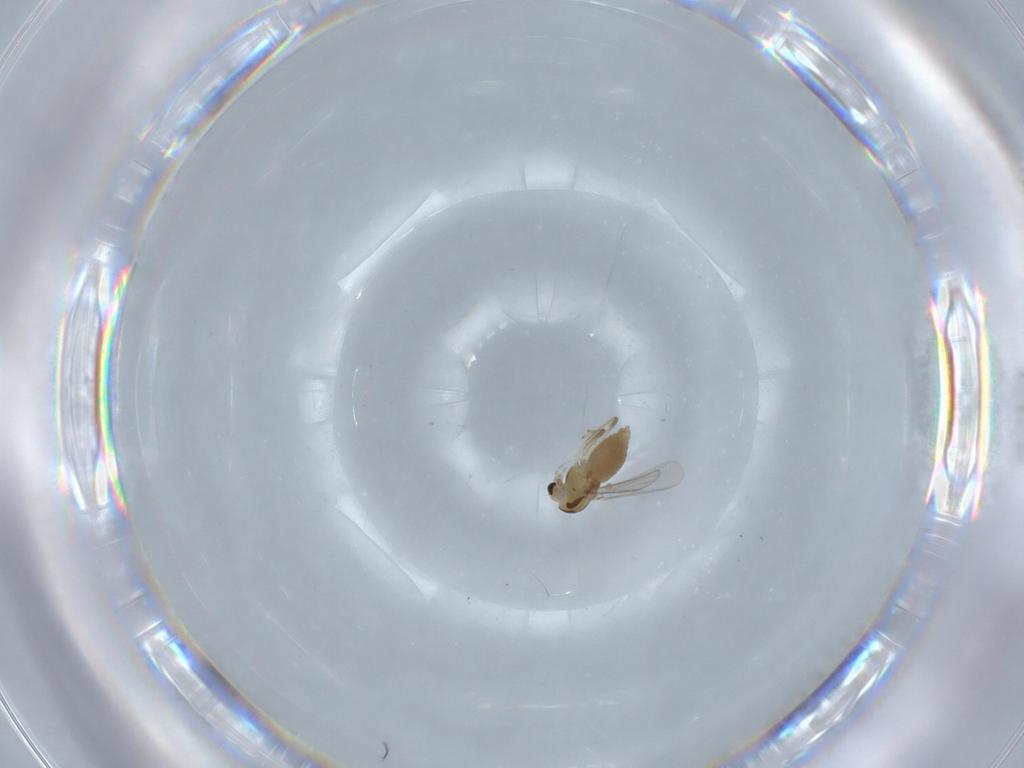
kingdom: Animalia
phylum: Arthropoda
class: Insecta
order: Diptera
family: Chironomidae
